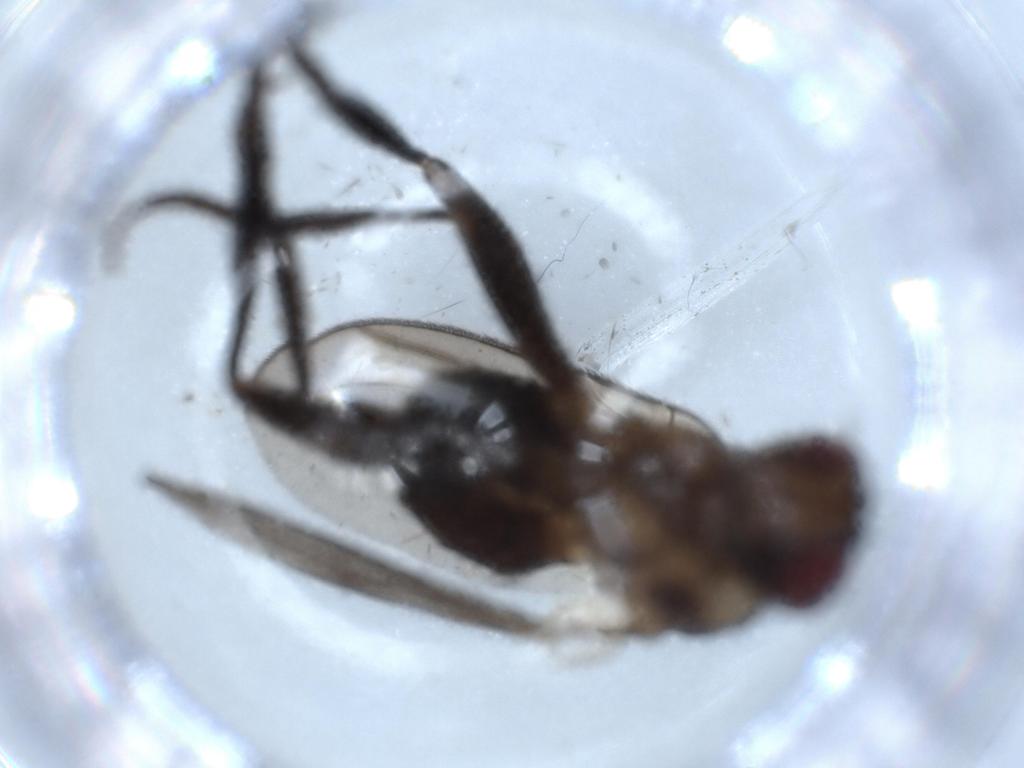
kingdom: Animalia
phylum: Arthropoda
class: Insecta
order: Diptera
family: Calliphoridae
